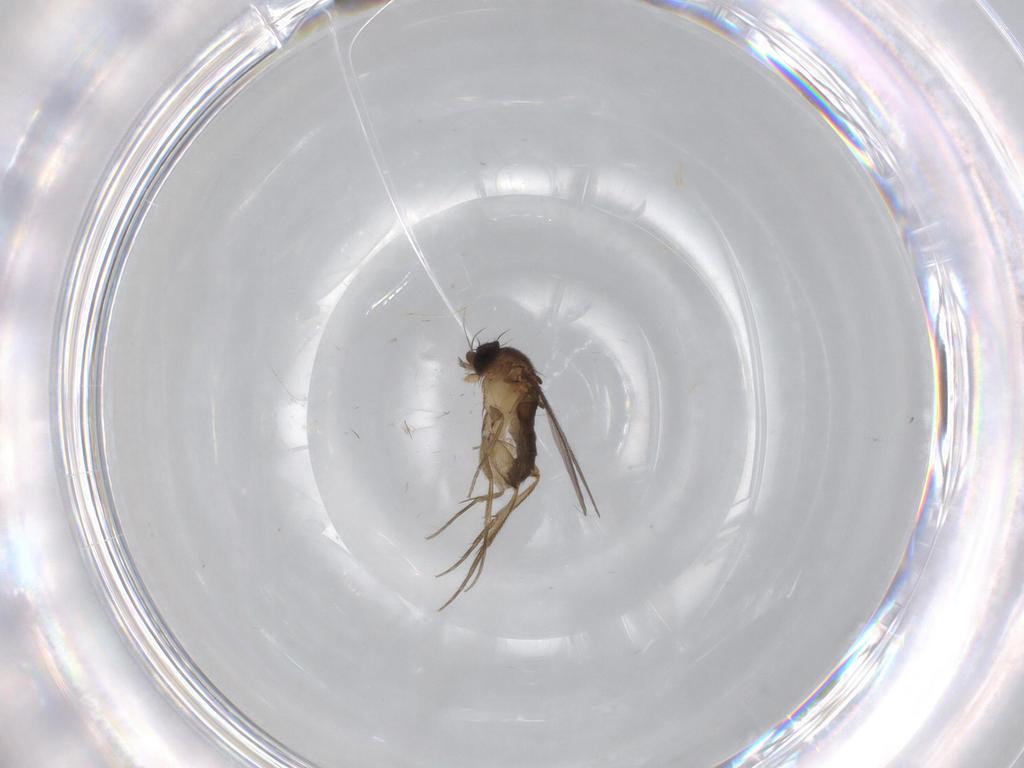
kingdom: Animalia
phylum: Arthropoda
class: Insecta
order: Diptera
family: Phoridae
